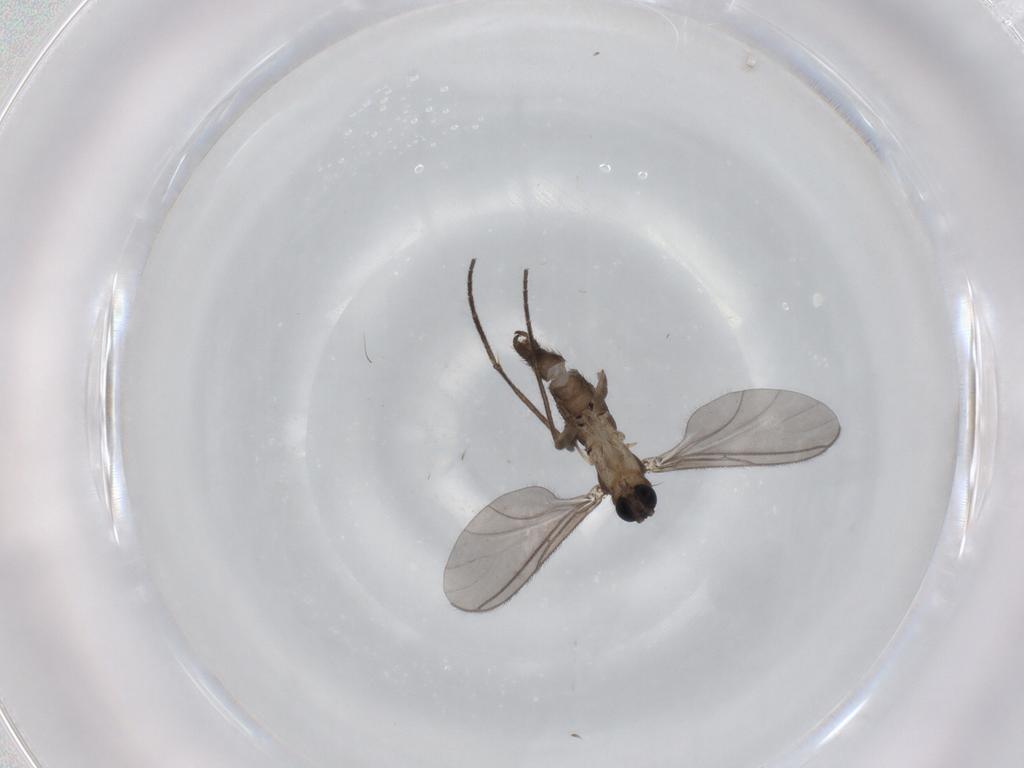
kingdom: Animalia
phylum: Arthropoda
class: Insecta
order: Diptera
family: Sciaridae
